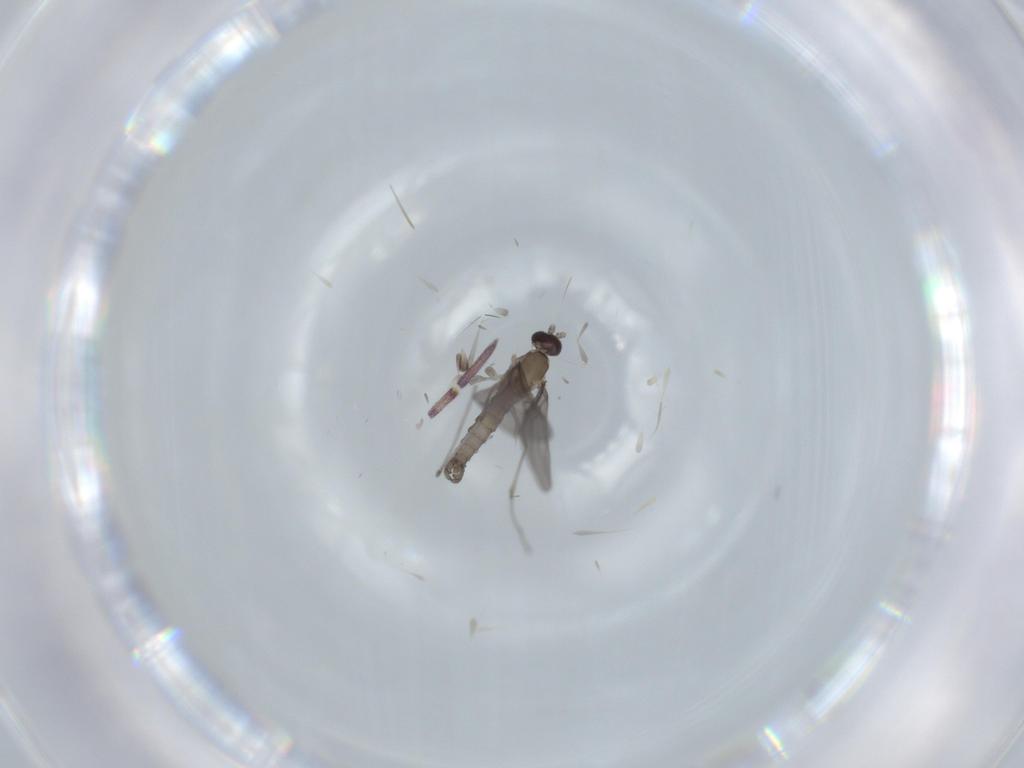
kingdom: Animalia
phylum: Arthropoda
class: Insecta
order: Diptera
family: Cecidomyiidae
